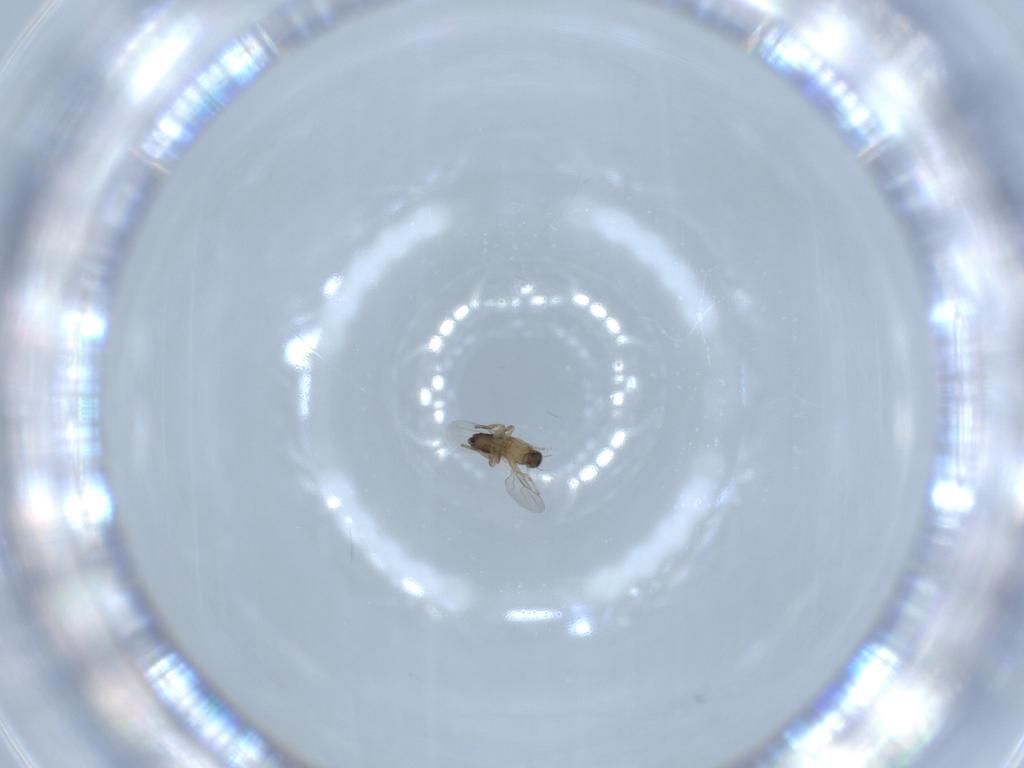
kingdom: Animalia
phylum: Arthropoda
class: Insecta
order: Diptera
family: Phoridae
